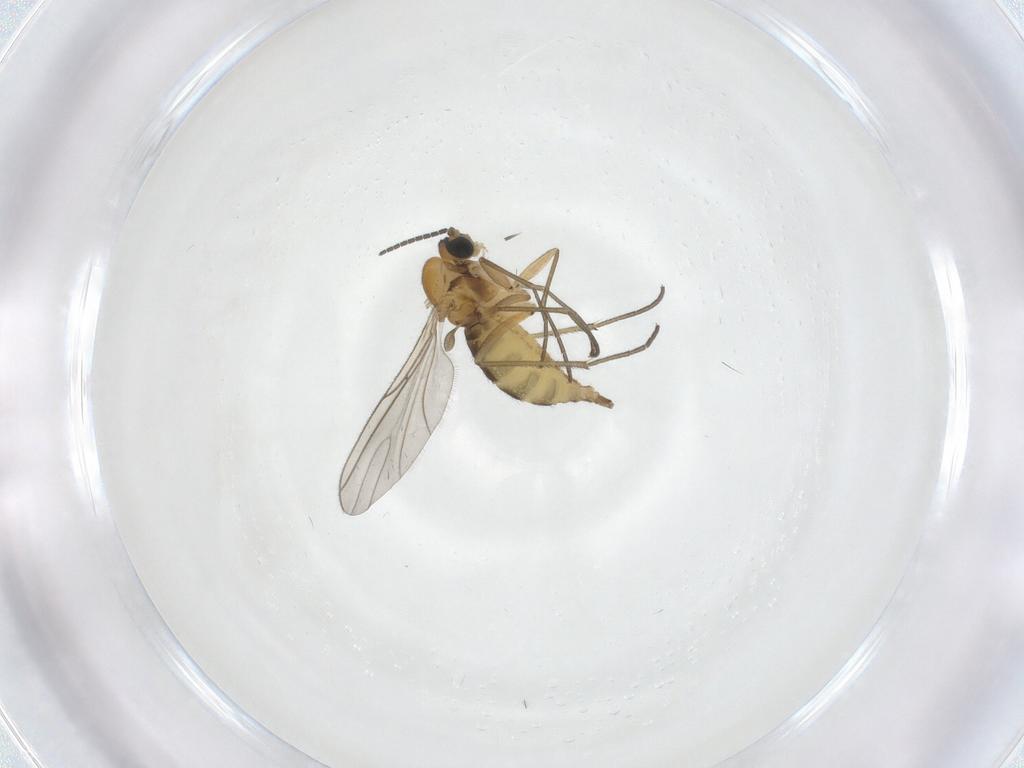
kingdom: Animalia
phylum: Arthropoda
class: Insecta
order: Diptera
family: Sciaridae
